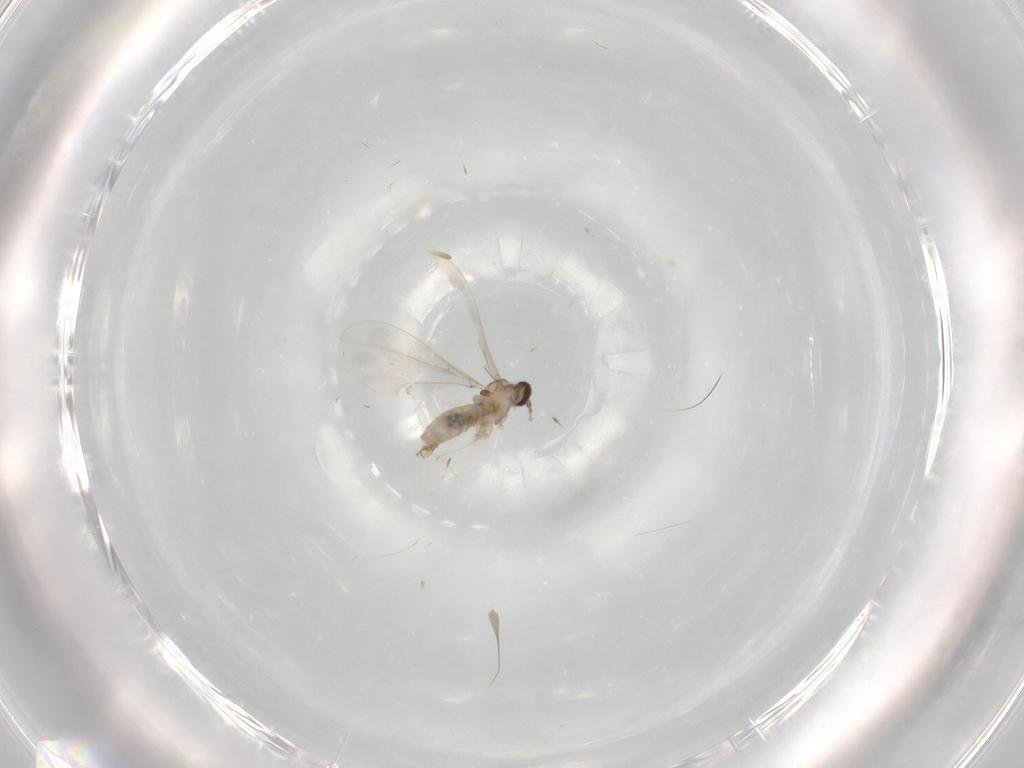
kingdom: Animalia
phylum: Arthropoda
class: Insecta
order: Diptera
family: Cecidomyiidae
